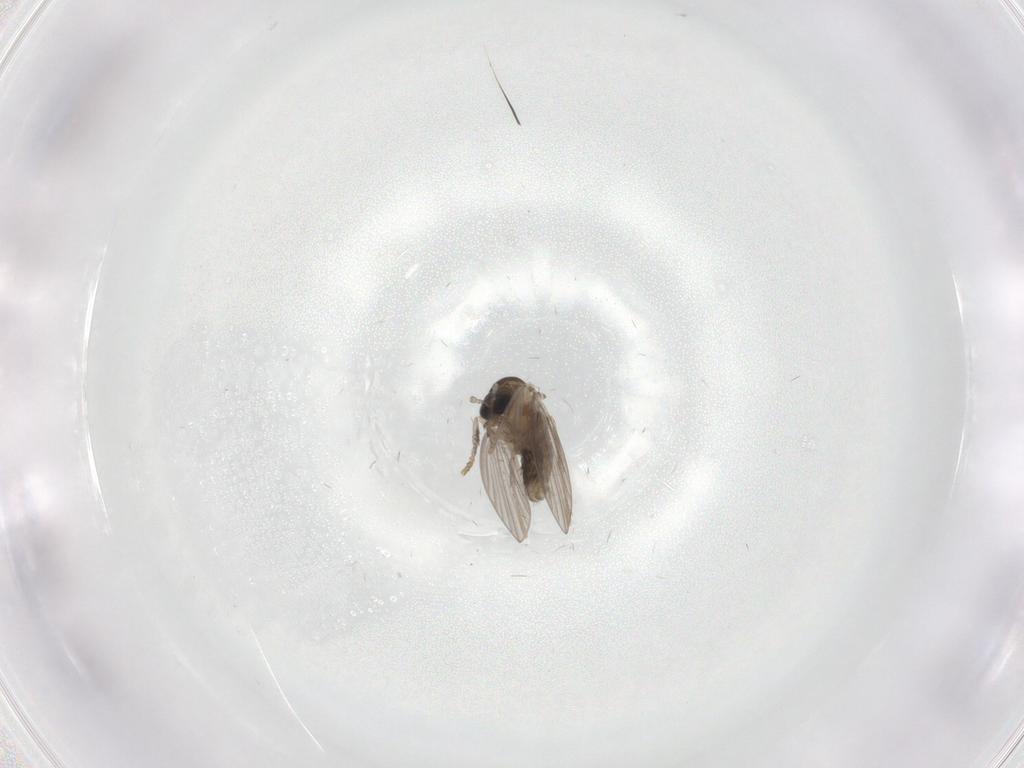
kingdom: Animalia
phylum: Arthropoda
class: Insecta
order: Diptera
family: Psychodidae
